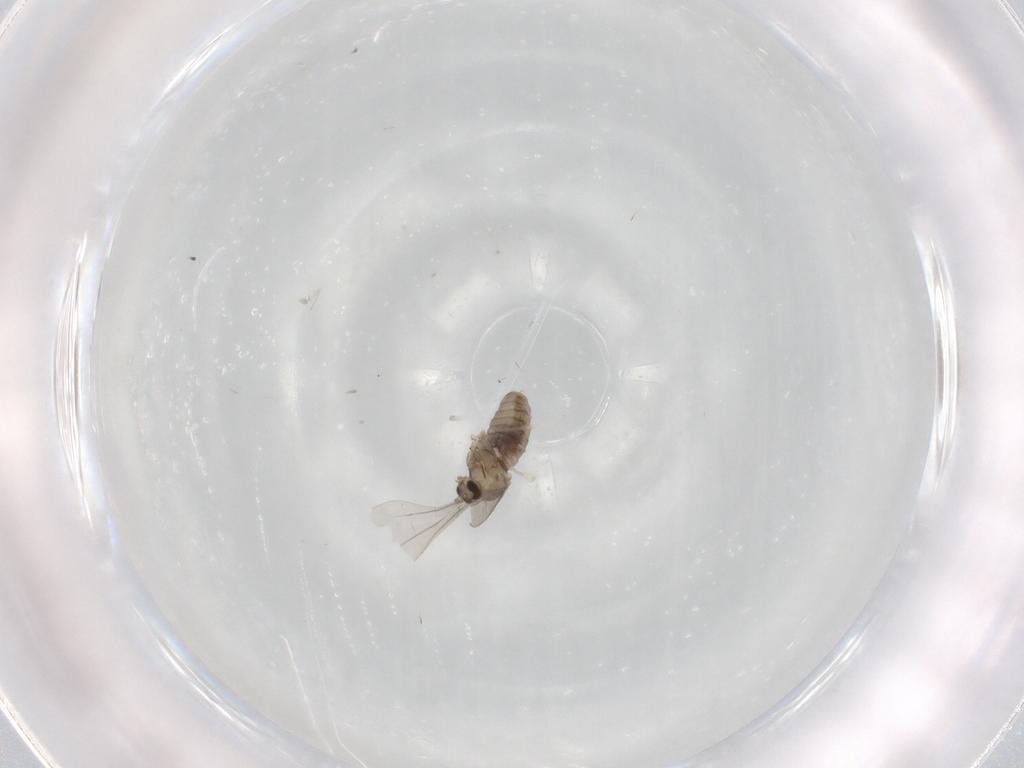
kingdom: Animalia
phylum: Arthropoda
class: Insecta
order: Diptera
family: Cecidomyiidae
